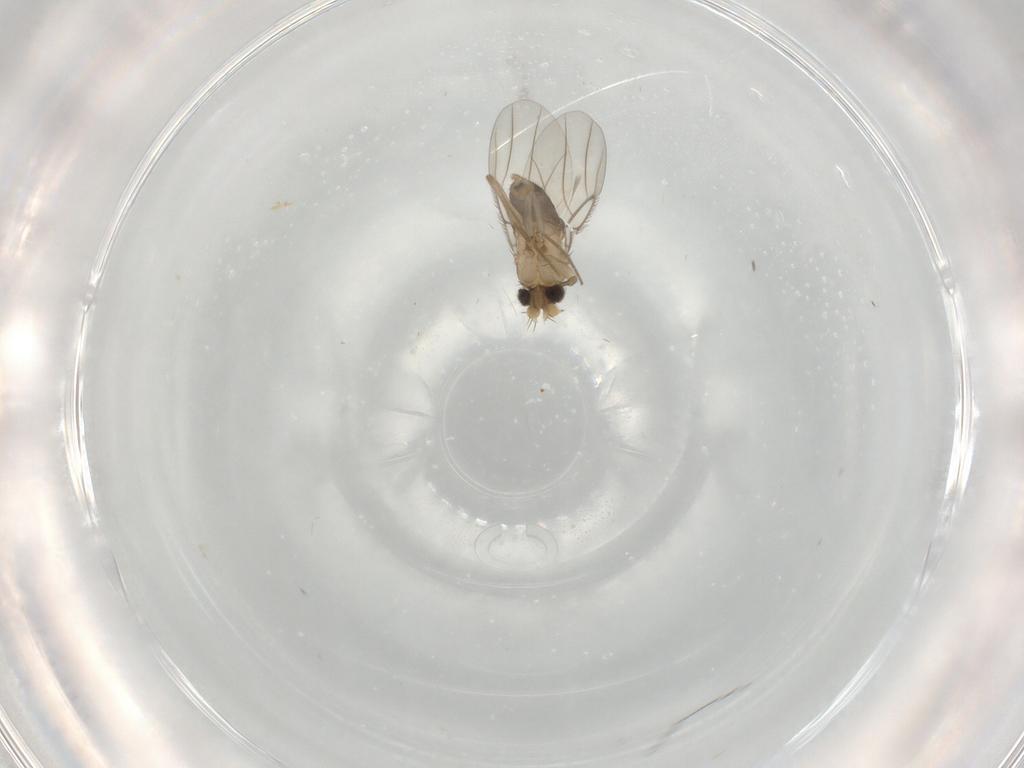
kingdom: Animalia
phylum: Arthropoda
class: Insecta
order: Diptera
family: Phoridae
